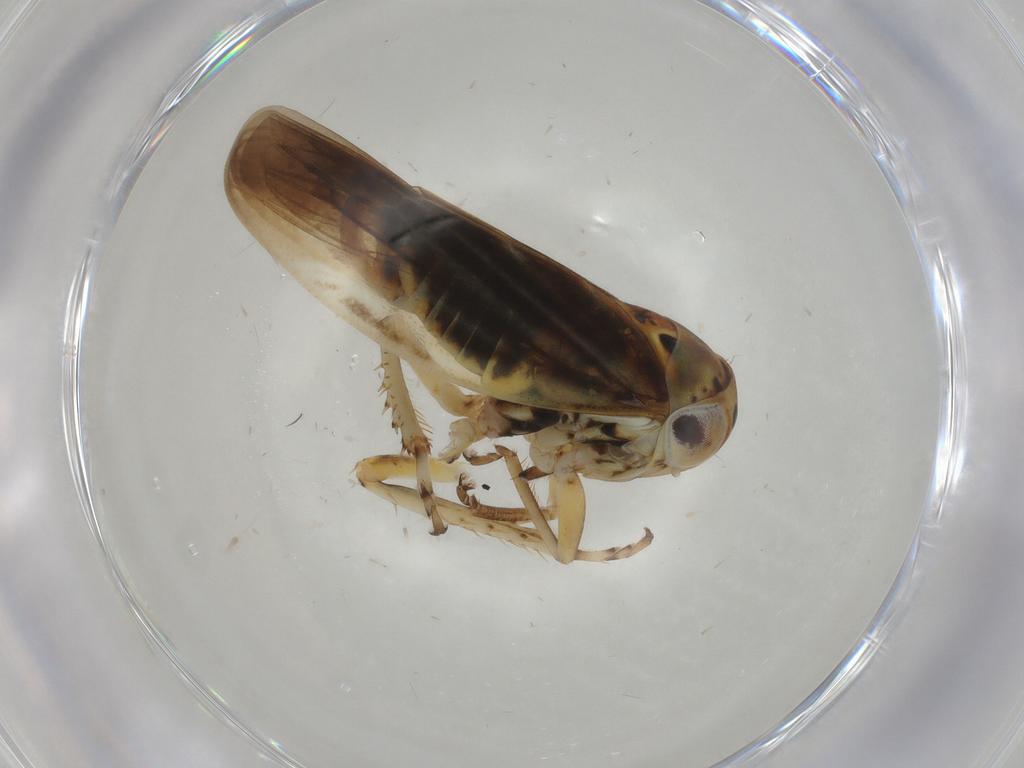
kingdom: Animalia
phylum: Arthropoda
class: Insecta
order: Hemiptera
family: Cicadellidae
